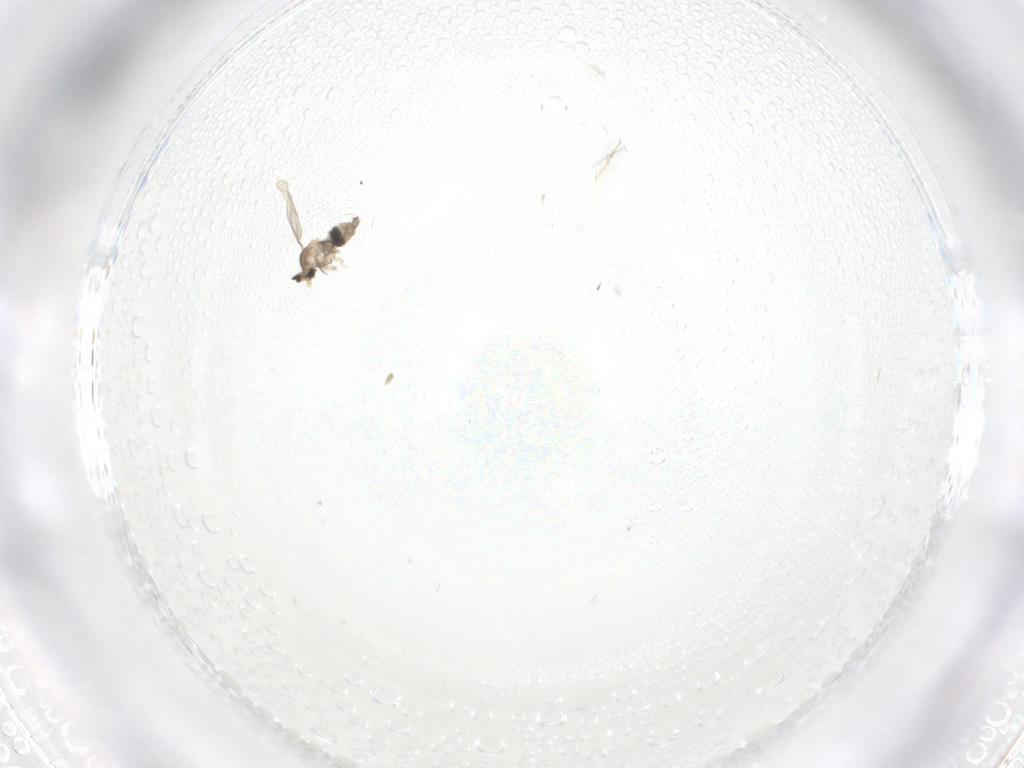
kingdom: Animalia
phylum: Arthropoda
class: Insecta
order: Diptera
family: Chironomidae
